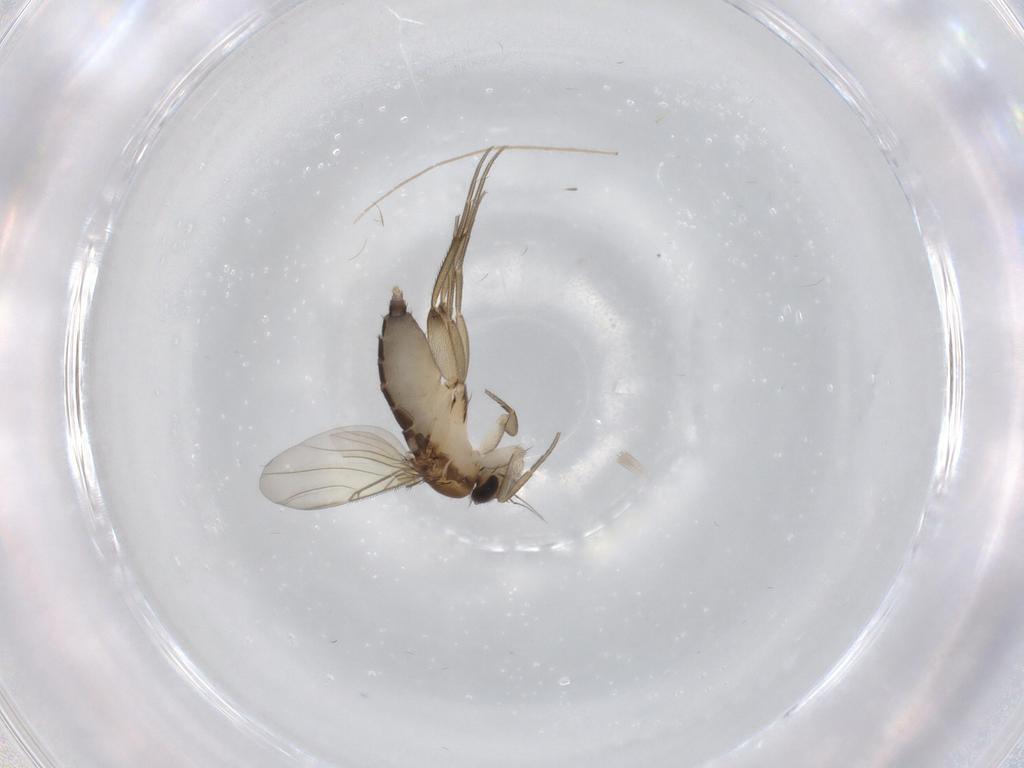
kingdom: Animalia
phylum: Arthropoda
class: Insecta
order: Diptera
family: Phoridae
